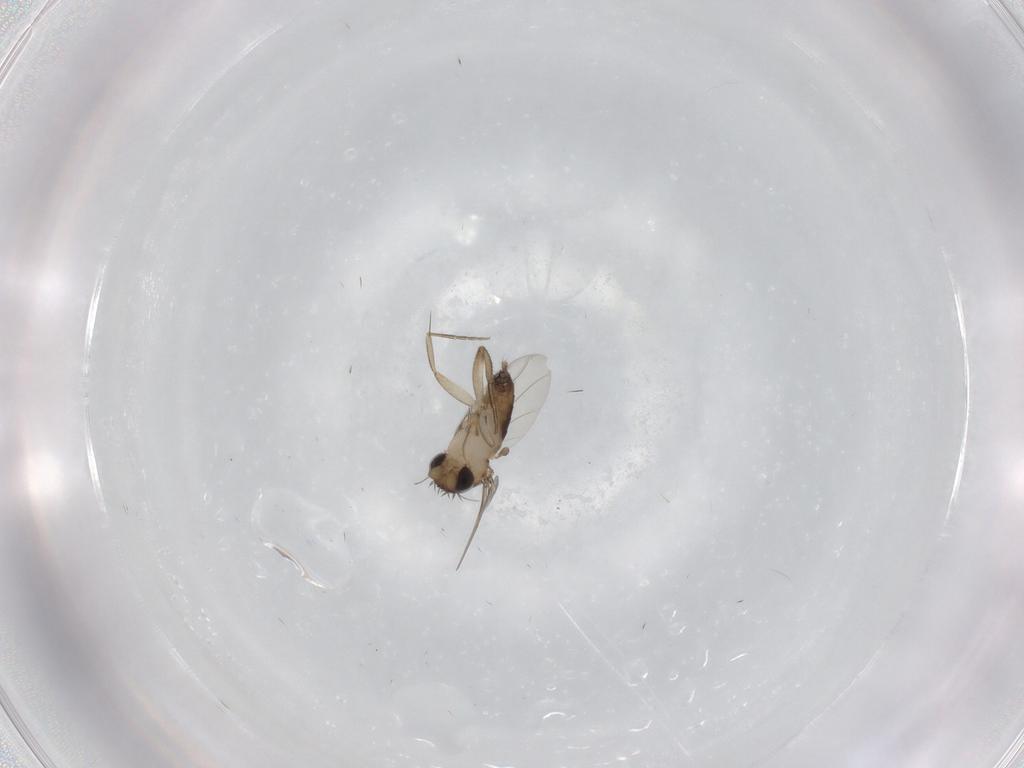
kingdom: Animalia
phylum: Arthropoda
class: Insecta
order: Diptera
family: Phoridae
